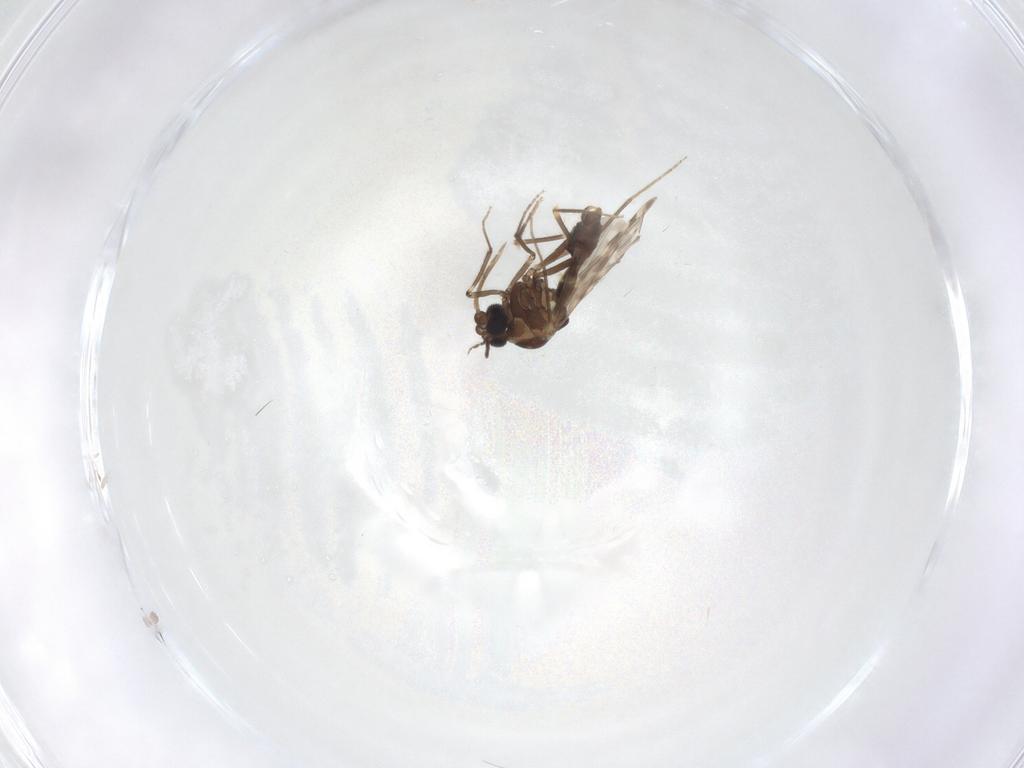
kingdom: Animalia
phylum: Arthropoda
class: Insecta
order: Diptera
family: Ceratopogonidae
